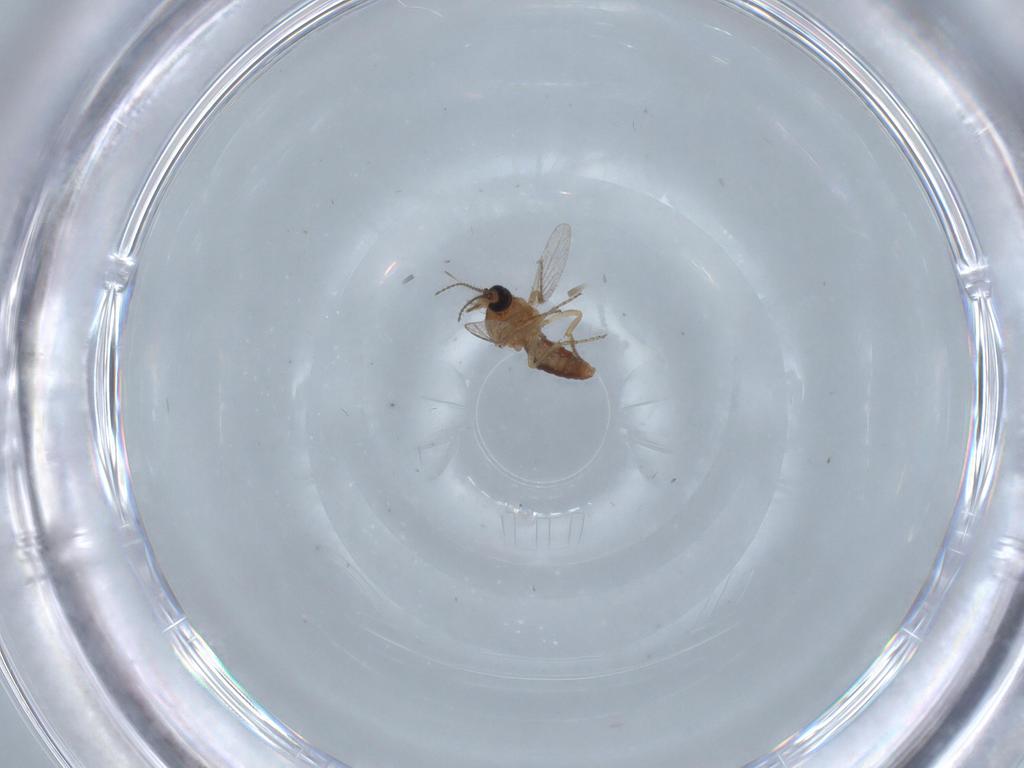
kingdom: Animalia
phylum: Arthropoda
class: Insecta
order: Diptera
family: Ceratopogonidae
